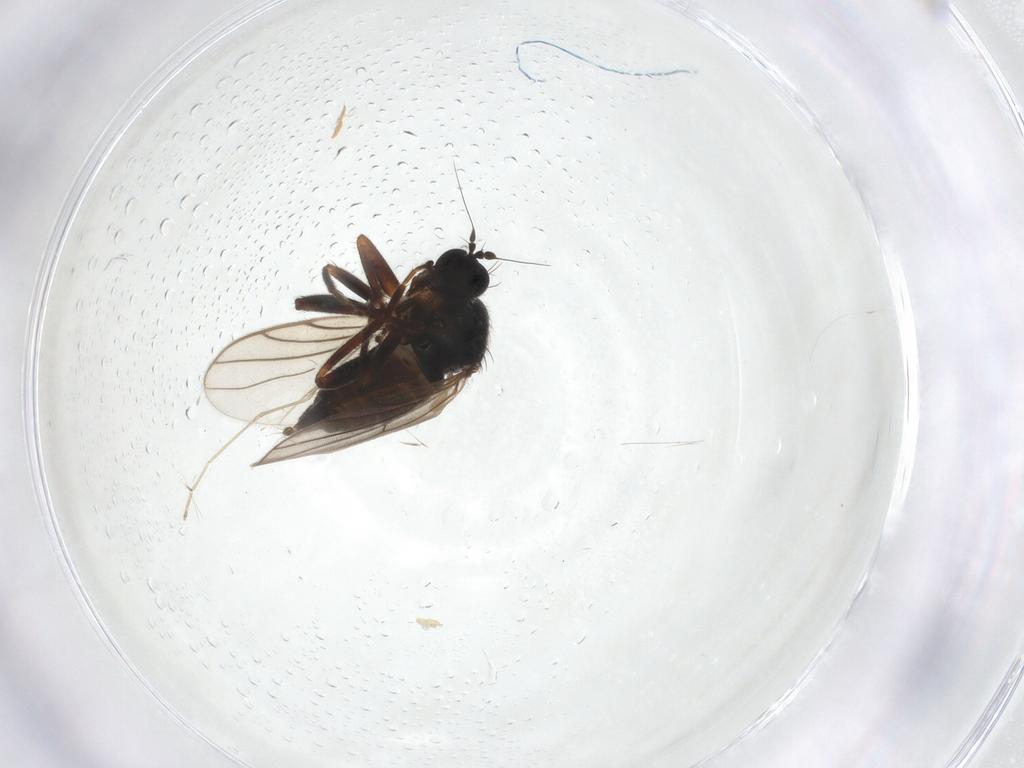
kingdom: Animalia
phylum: Arthropoda
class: Insecta
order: Diptera
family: Hybotidae
